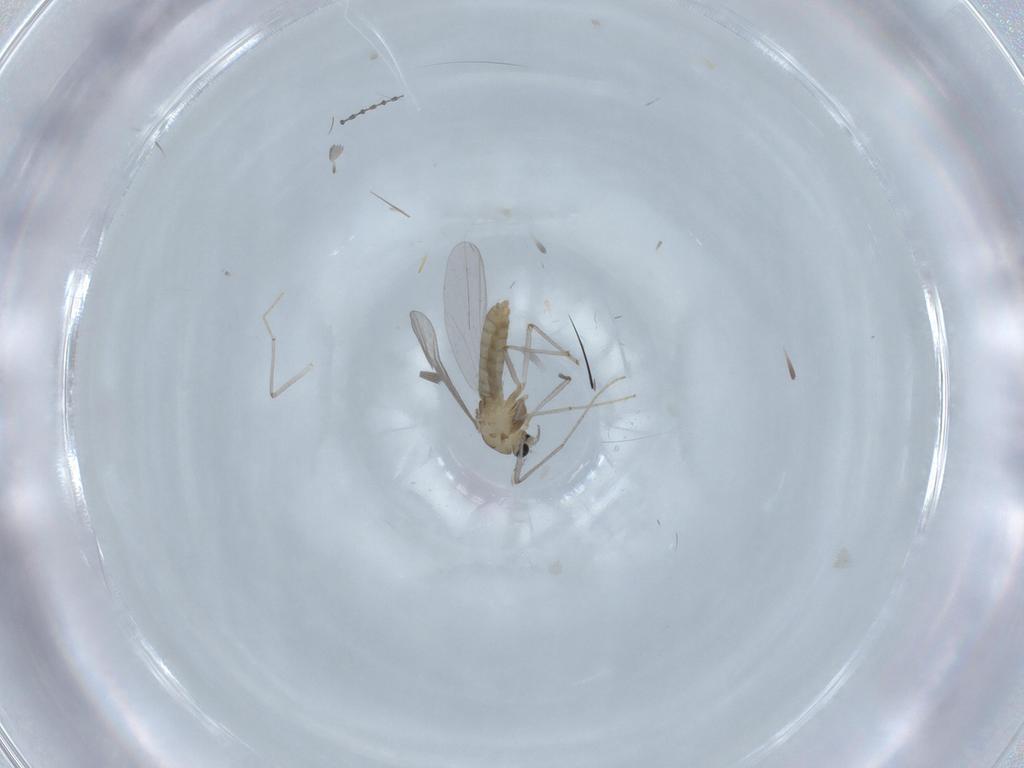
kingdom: Animalia
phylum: Arthropoda
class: Insecta
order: Diptera
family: Chironomidae
